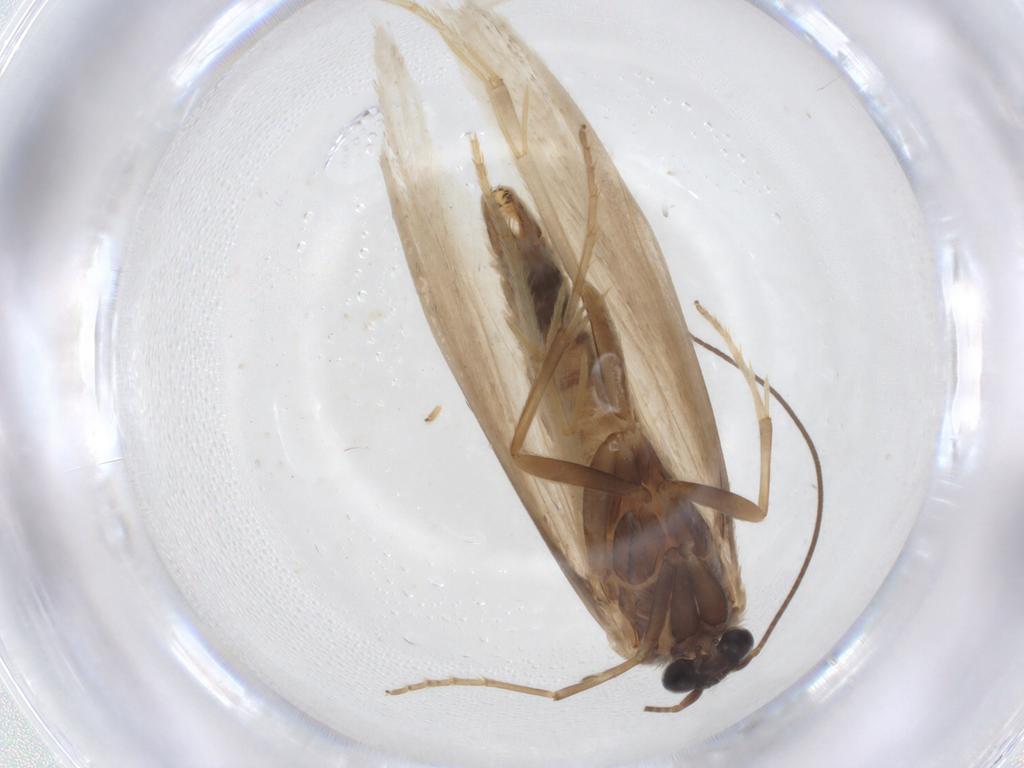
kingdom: Animalia
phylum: Arthropoda
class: Insecta
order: Lepidoptera
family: Tridentaformidae
